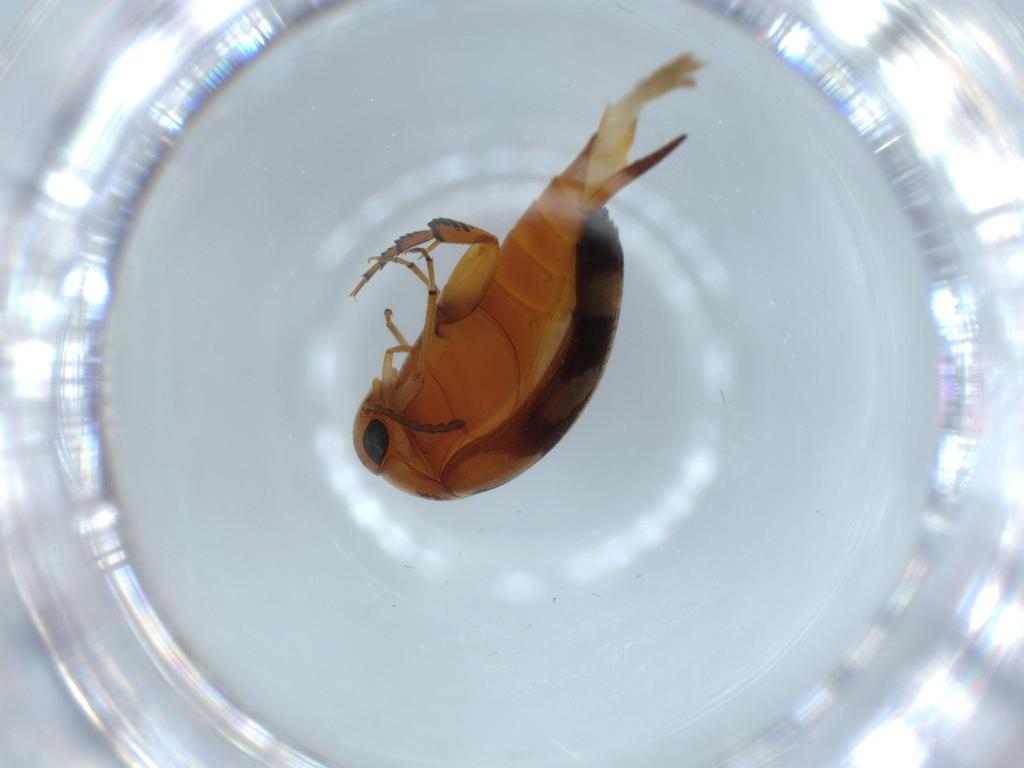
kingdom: Animalia
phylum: Arthropoda
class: Insecta
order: Coleoptera
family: Mordellidae
